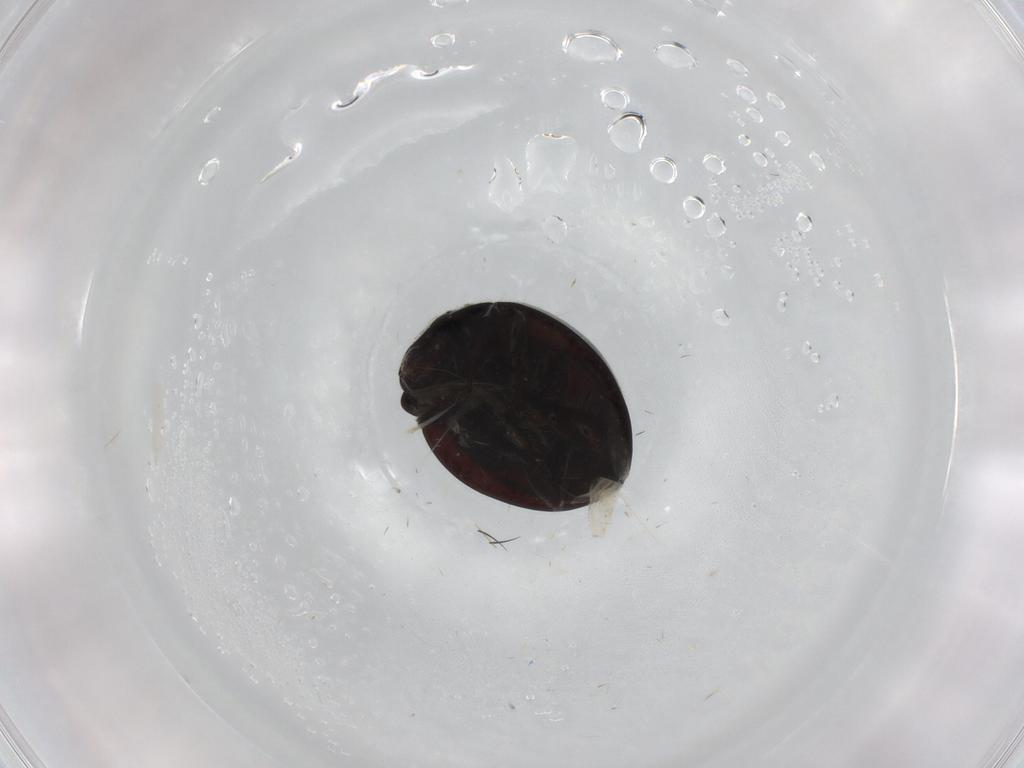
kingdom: Animalia
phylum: Arthropoda
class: Insecta
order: Coleoptera
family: Coccinellidae
